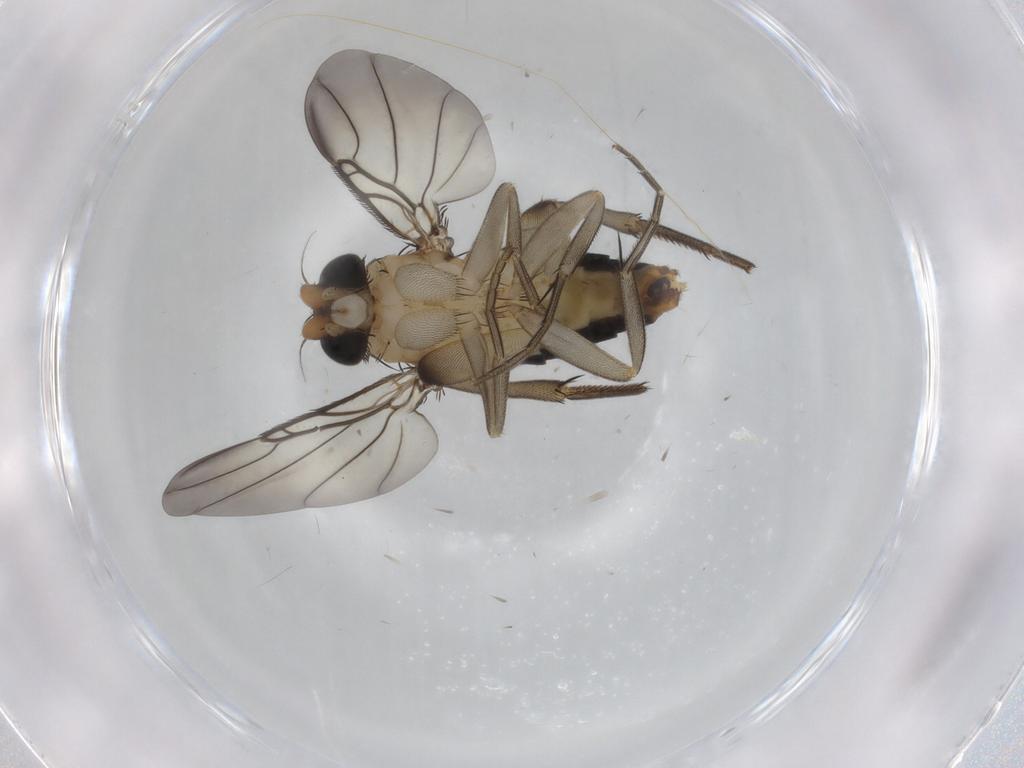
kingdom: Animalia
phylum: Arthropoda
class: Insecta
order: Diptera
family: Phoridae
